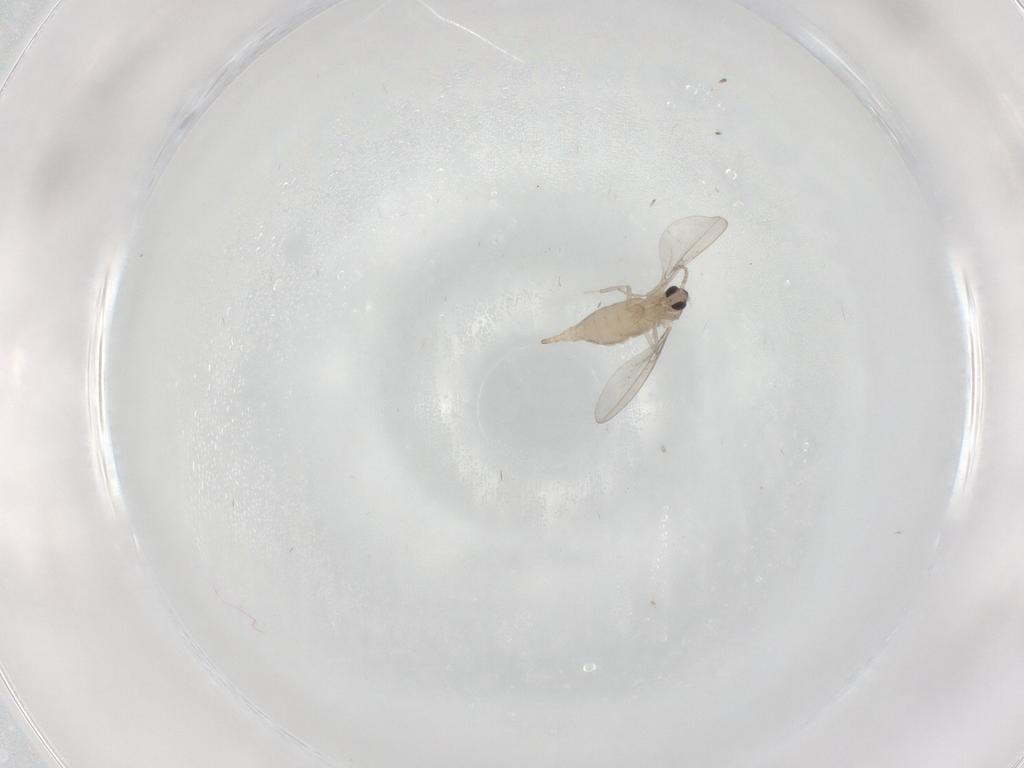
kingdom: Animalia
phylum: Arthropoda
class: Insecta
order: Diptera
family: Cecidomyiidae
